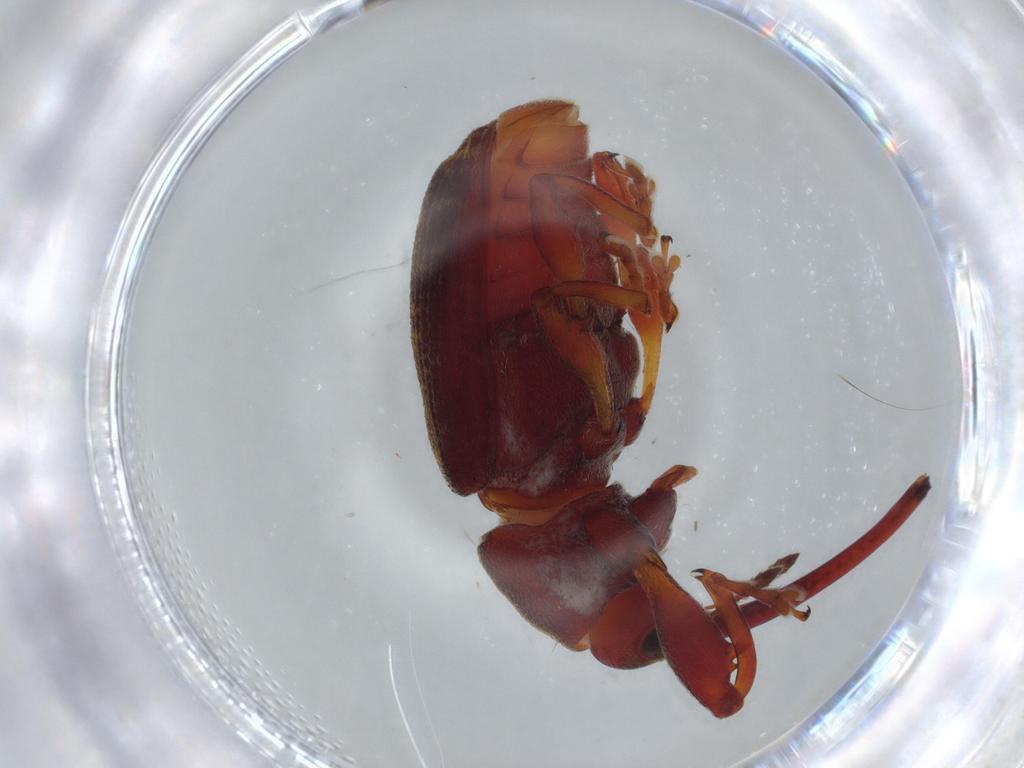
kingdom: Animalia
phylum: Arthropoda
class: Insecta
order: Coleoptera
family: Curculionidae
